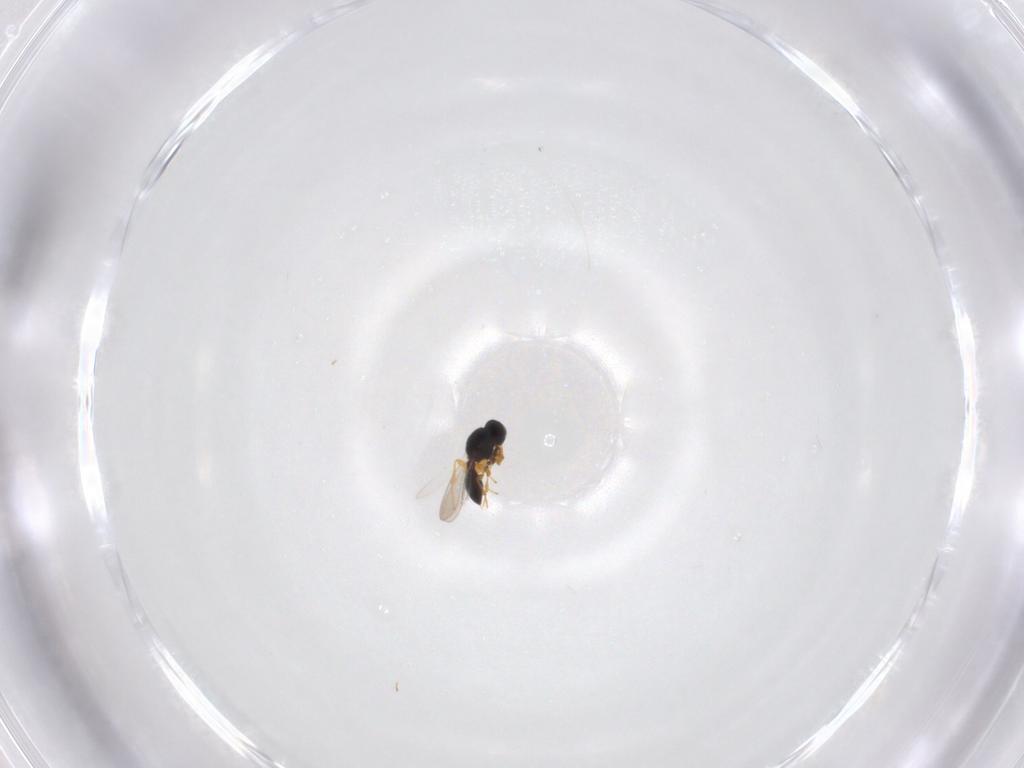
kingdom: Animalia
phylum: Arthropoda
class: Insecta
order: Hymenoptera
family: Platygastridae
